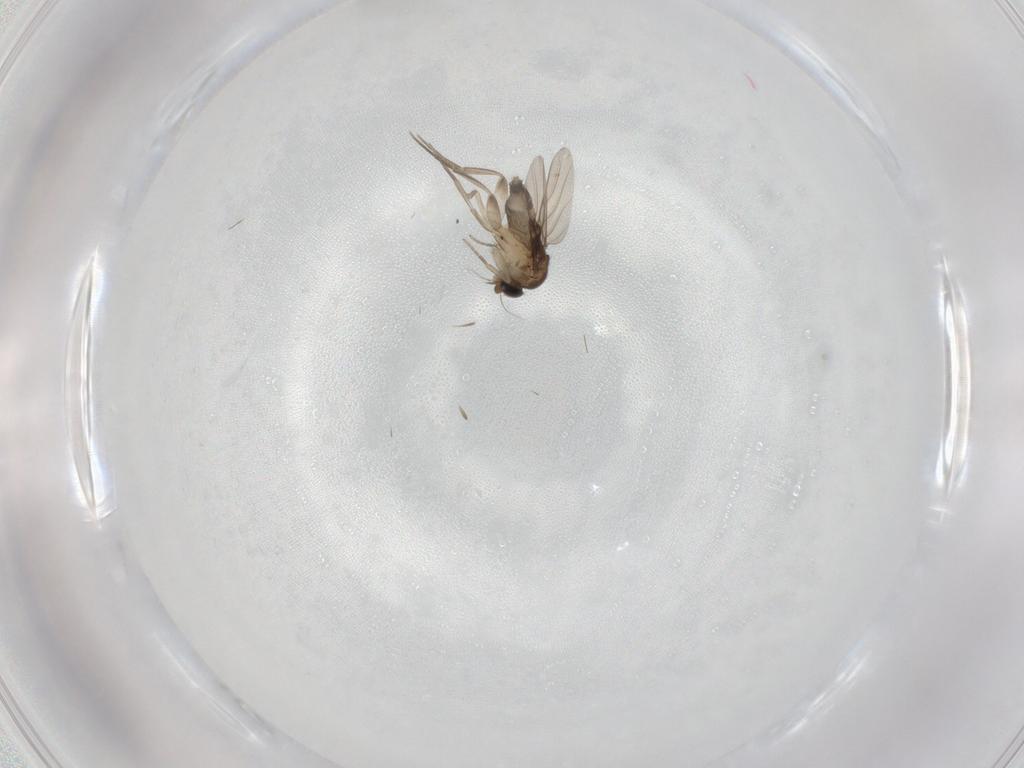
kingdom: Animalia
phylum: Arthropoda
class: Insecta
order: Diptera
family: Phoridae
